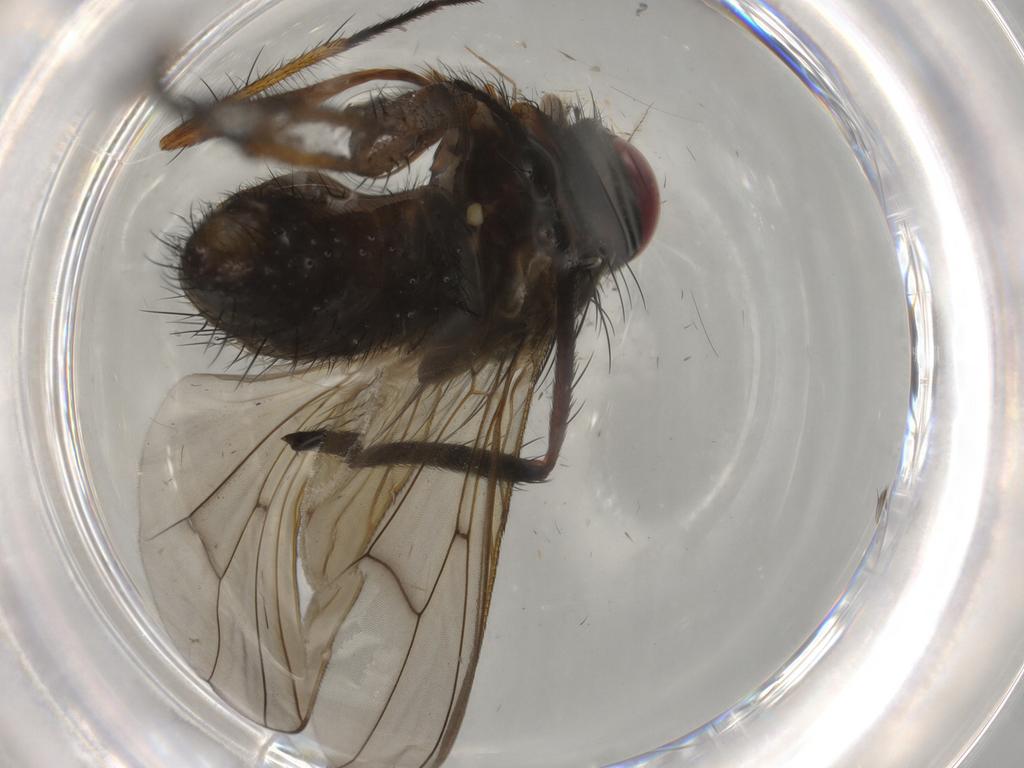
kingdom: Animalia
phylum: Arthropoda
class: Insecta
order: Diptera
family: Muscidae
